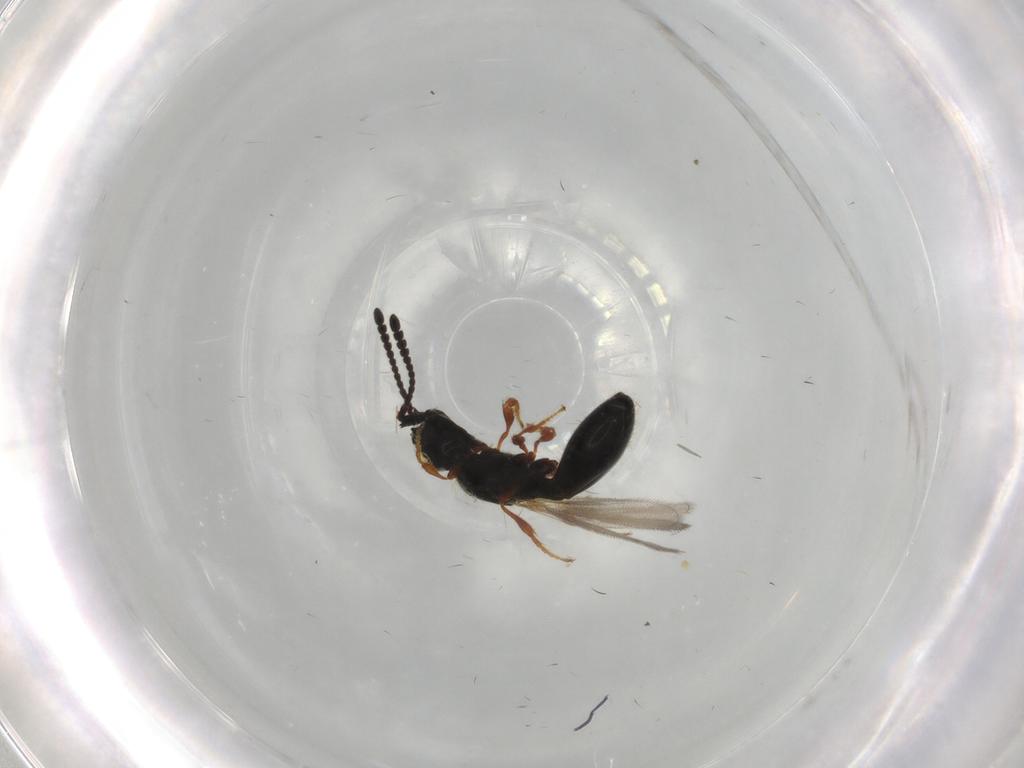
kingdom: Animalia
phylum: Arthropoda
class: Insecta
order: Hymenoptera
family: Diapriidae
